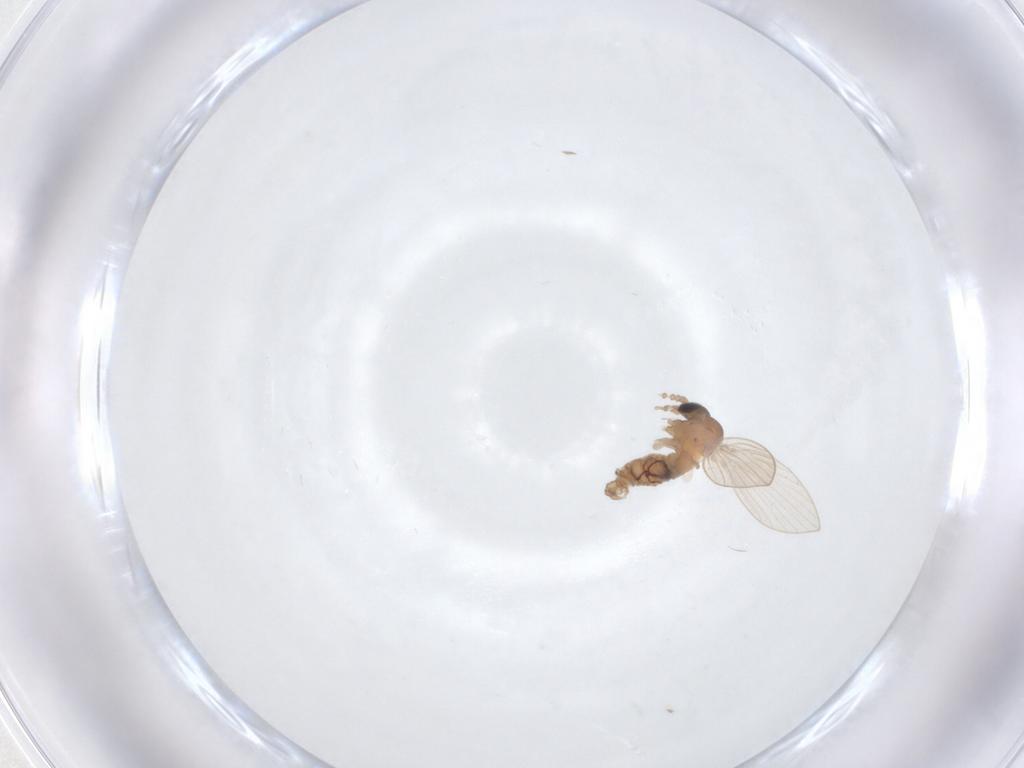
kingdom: Animalia
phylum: Arthropoda
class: Insecta
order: Diptera
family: Psychodidae
